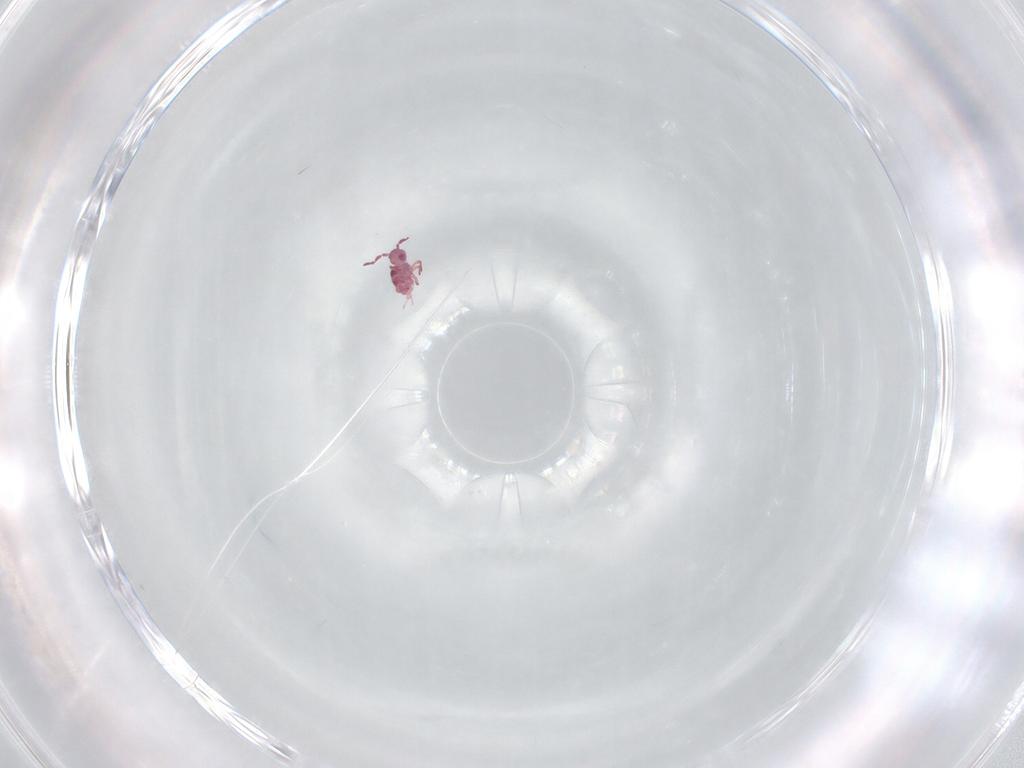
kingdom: Animalia
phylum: Arthropoda
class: Collembola
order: Symphypleona
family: Sminthurididae
